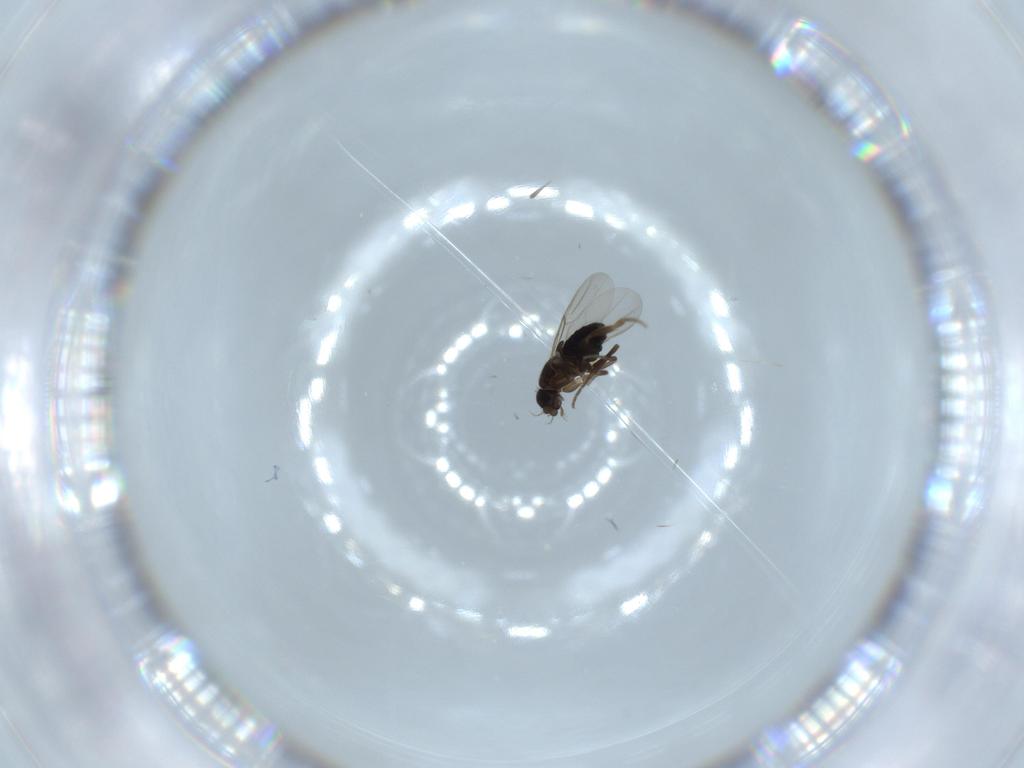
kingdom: Animalia
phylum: Arthropoda
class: Insecta
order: Diptera
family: Phoridae
